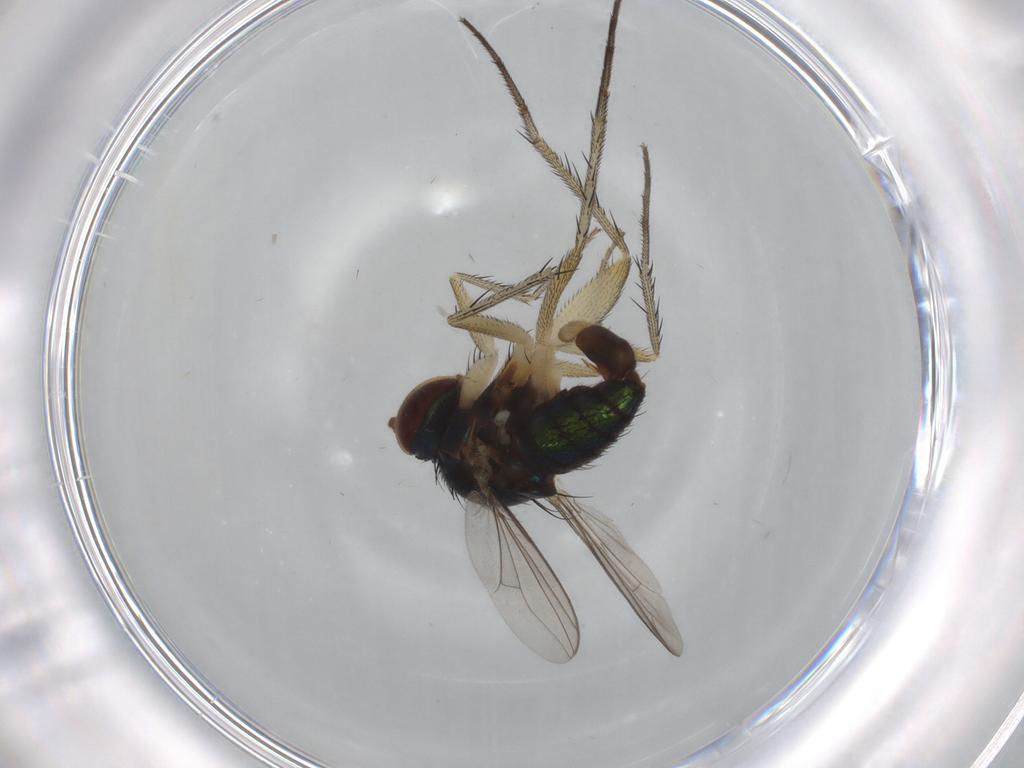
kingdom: Animalia
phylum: Arthropoda
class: Insecta
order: Diptera
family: Dolichopodidae
